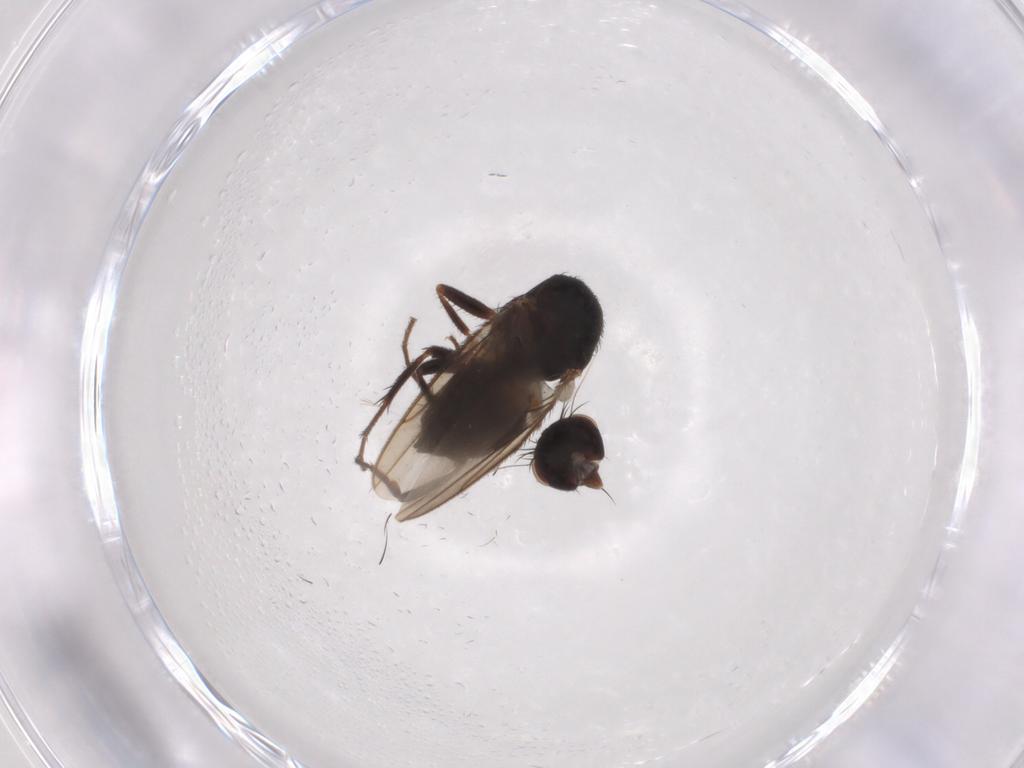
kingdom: Animalia
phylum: Arthropoda
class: Insecta
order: Diptera
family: Sphaeroceridae
